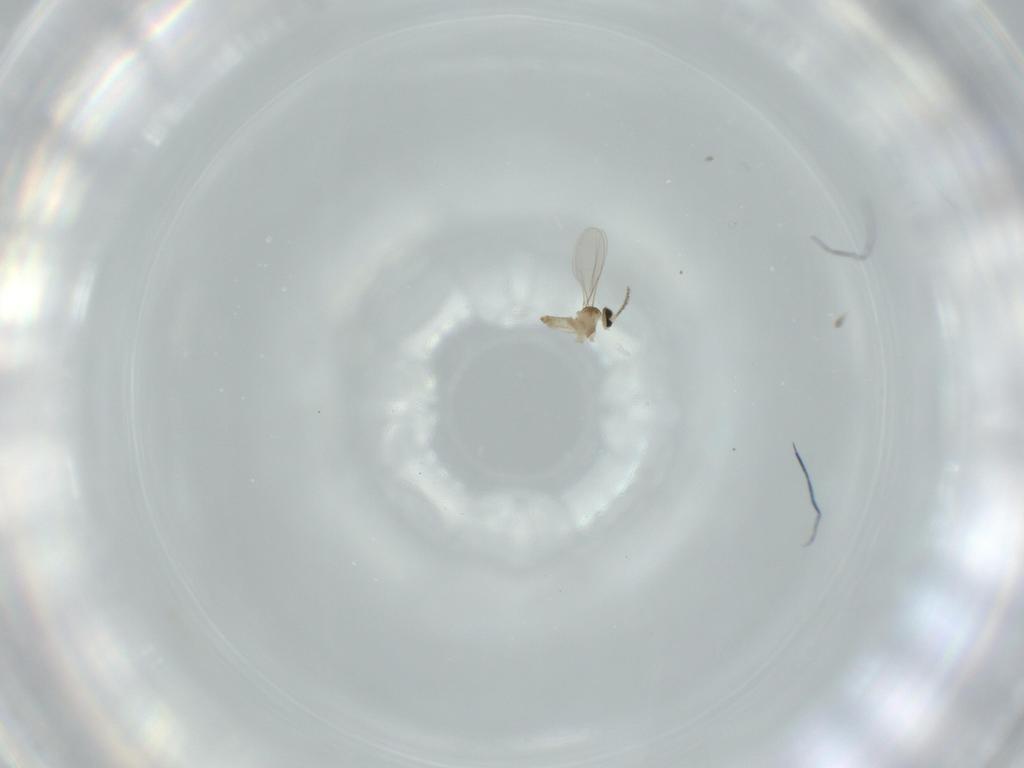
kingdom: Animalia
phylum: Arthropoda
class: Insecta
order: Diptera
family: Cecidomyiidae
